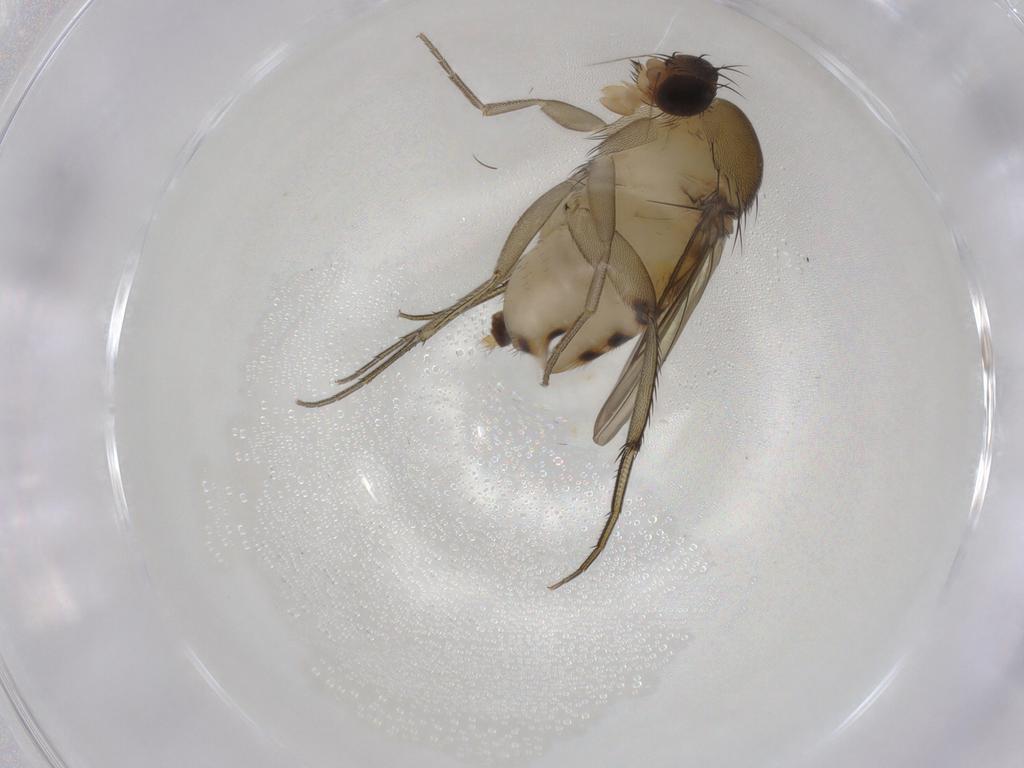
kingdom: Animalia
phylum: Arthropoda
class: Insecta
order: Diptera
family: Phoridae
